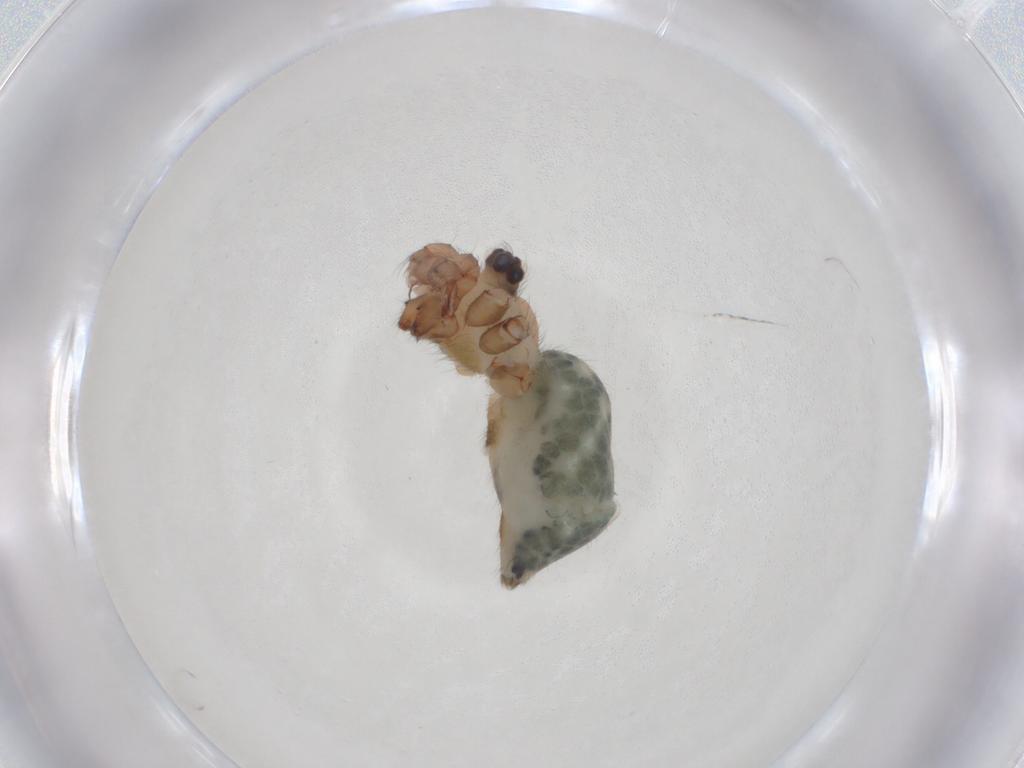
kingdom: Animalia
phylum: Arthropoda
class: Arachnida
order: Araneae
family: Pholcidae
